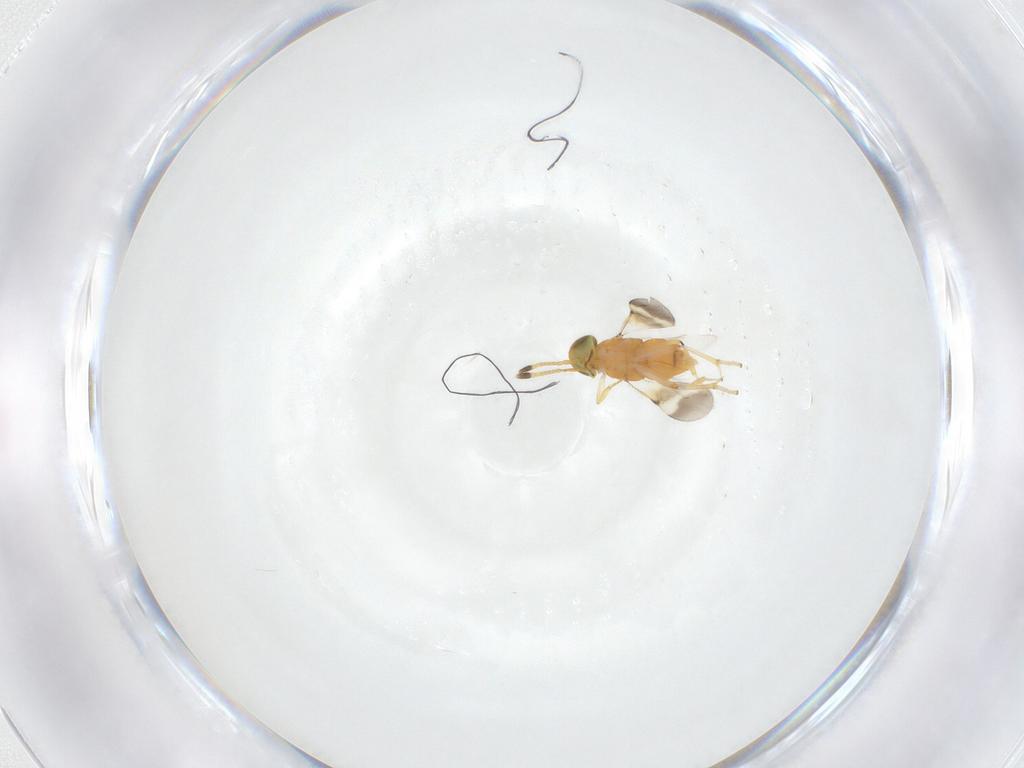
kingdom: Animalia
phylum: Arthropoda
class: Insecta
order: Hymenoptera
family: Encyrtidae
